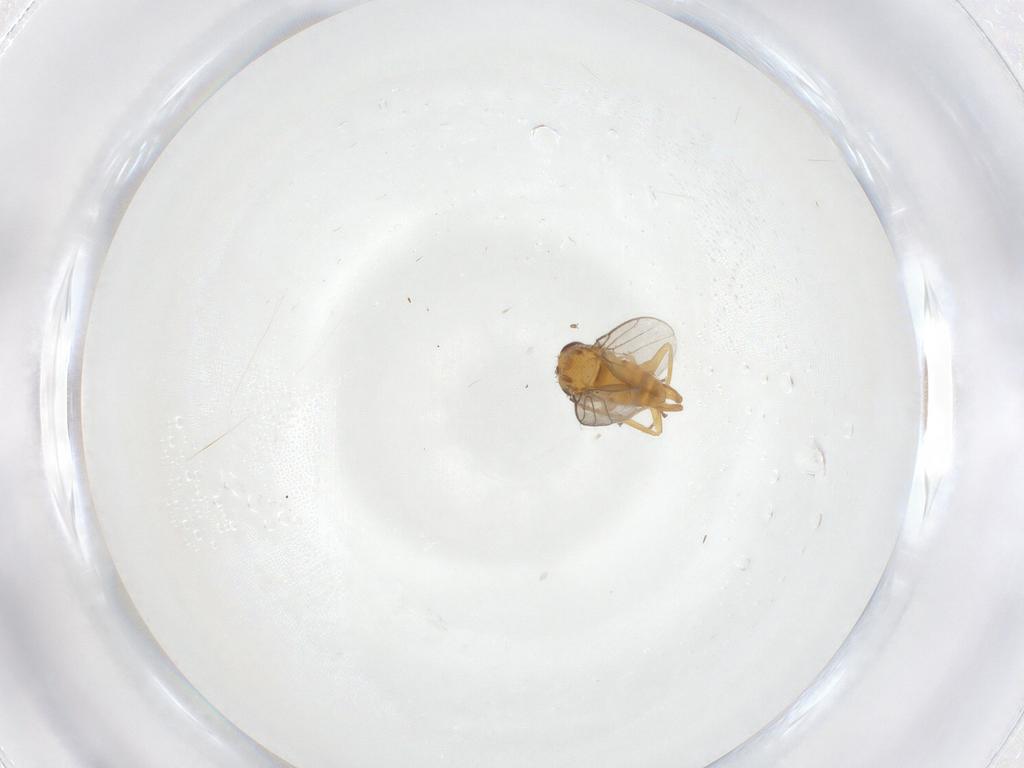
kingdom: Animalia
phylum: Arthropoda
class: Insecta
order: Diptera
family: Chloropidae
